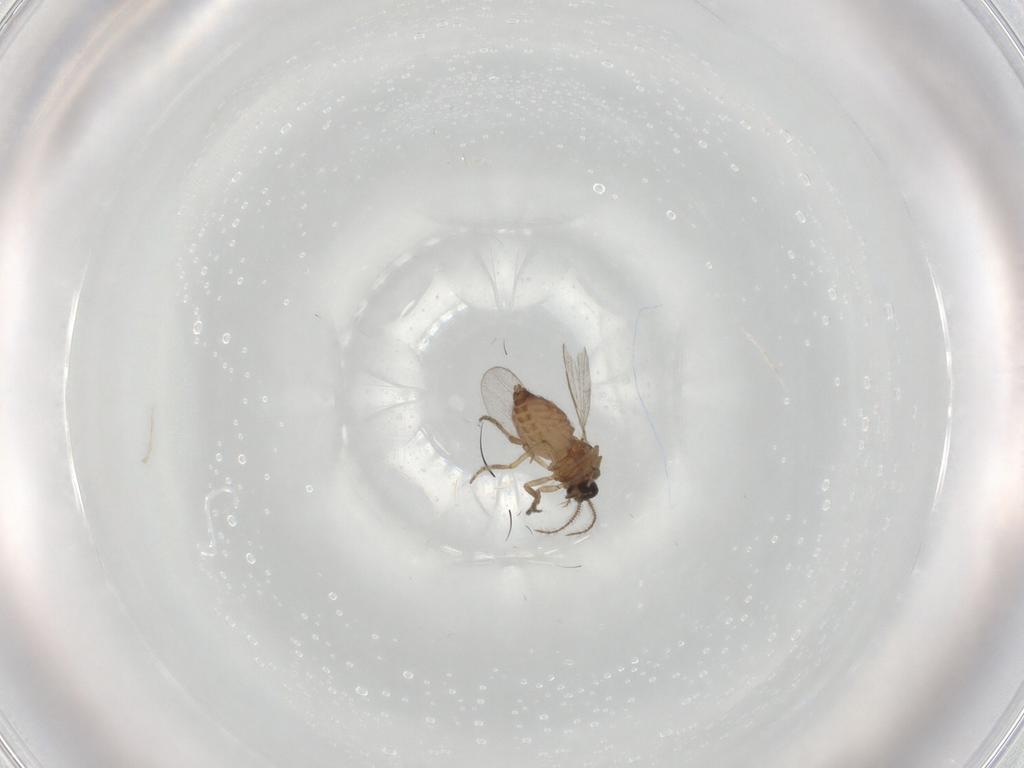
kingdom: Animalia
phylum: Arthropoda
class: Insecta
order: Diptera
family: Dolichopodidae
